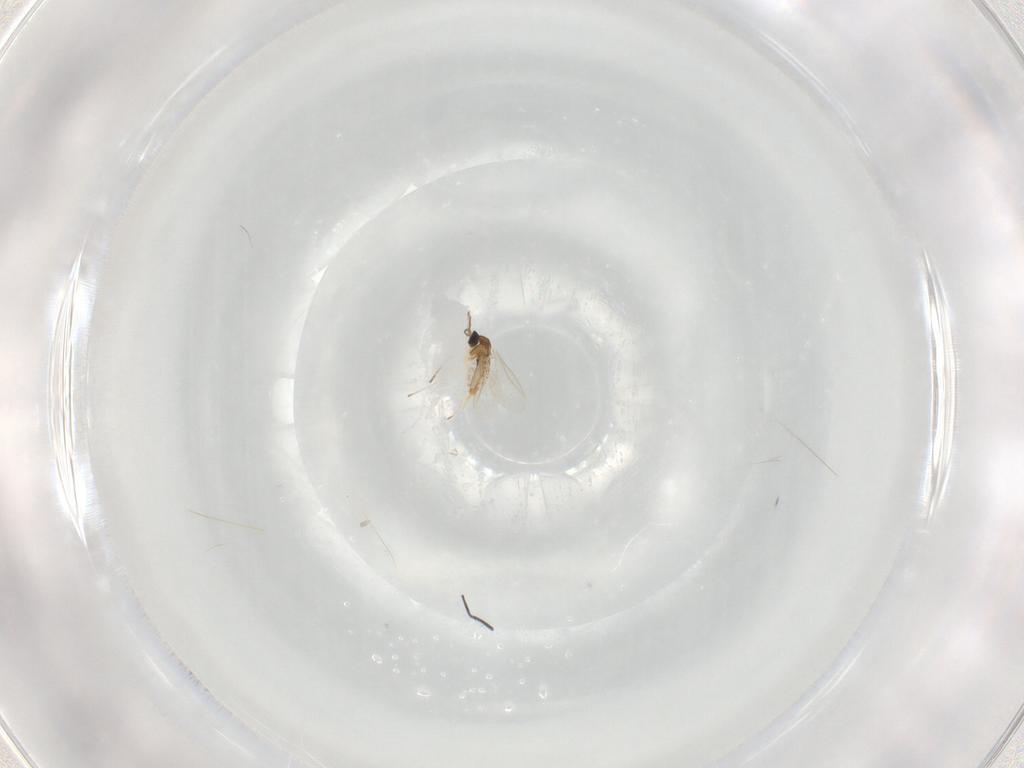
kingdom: Animalia
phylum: Arthropoda
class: Insecta
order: Diptera
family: Cecidomyiidae
